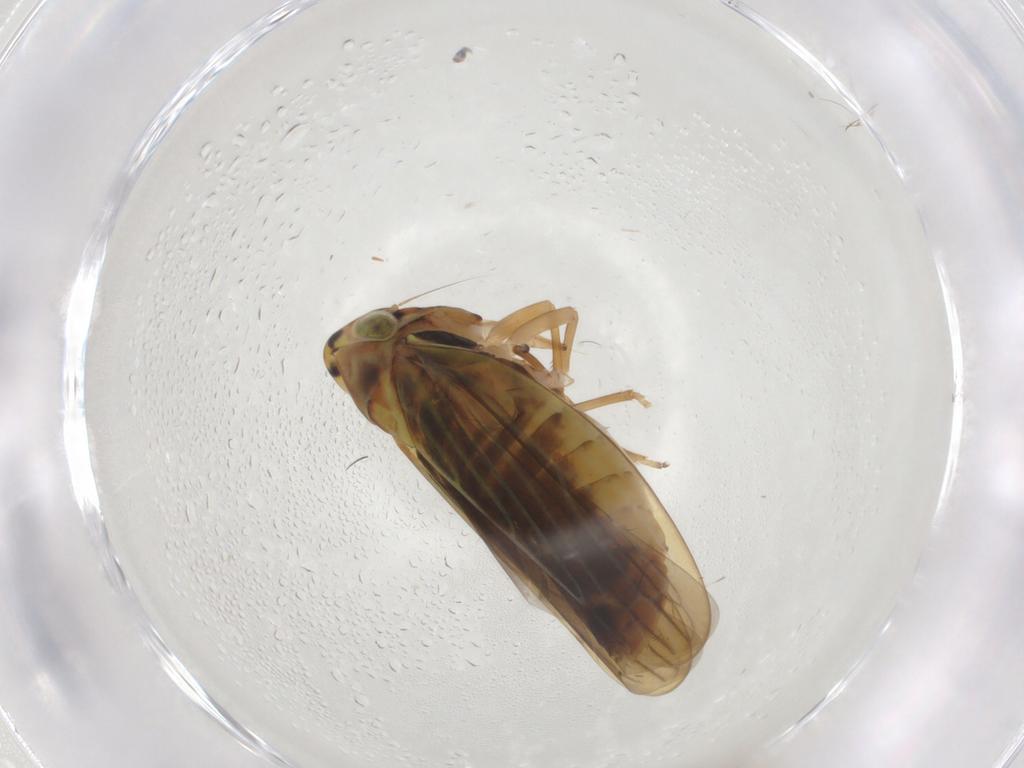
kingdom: Animalia
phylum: Arthropoda
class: Insecta
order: Hemiptera
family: Cicadellidae
